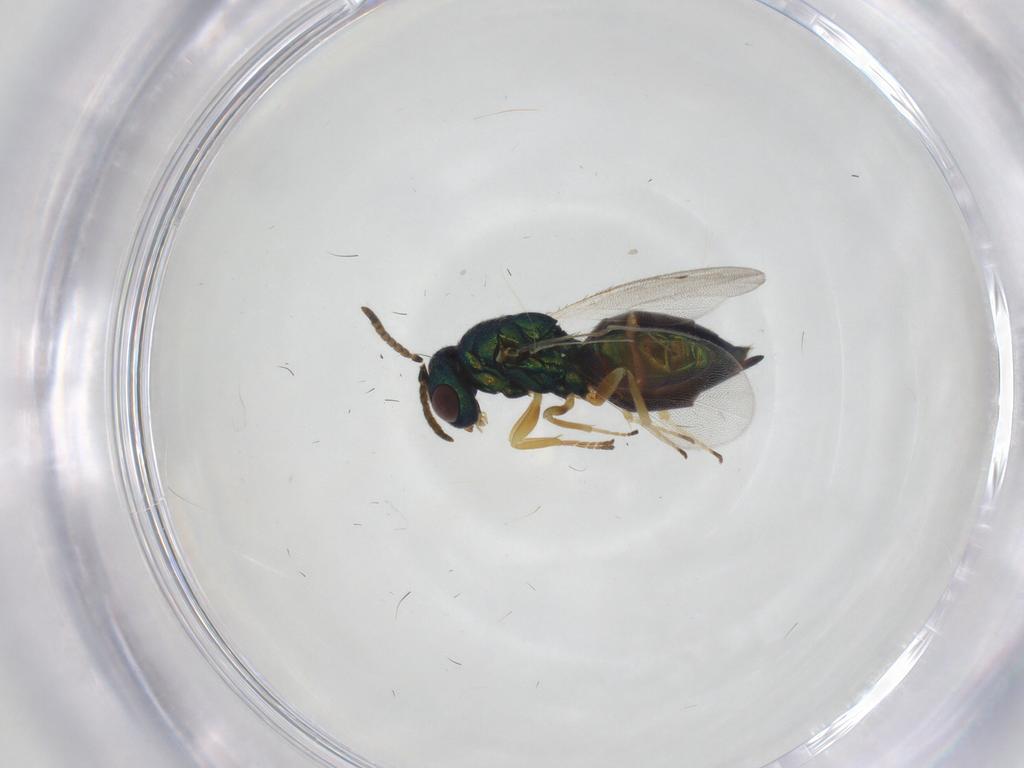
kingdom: Animalia
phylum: Arthropoda
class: Insecta
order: Hymenoptera
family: Pteromalidae
